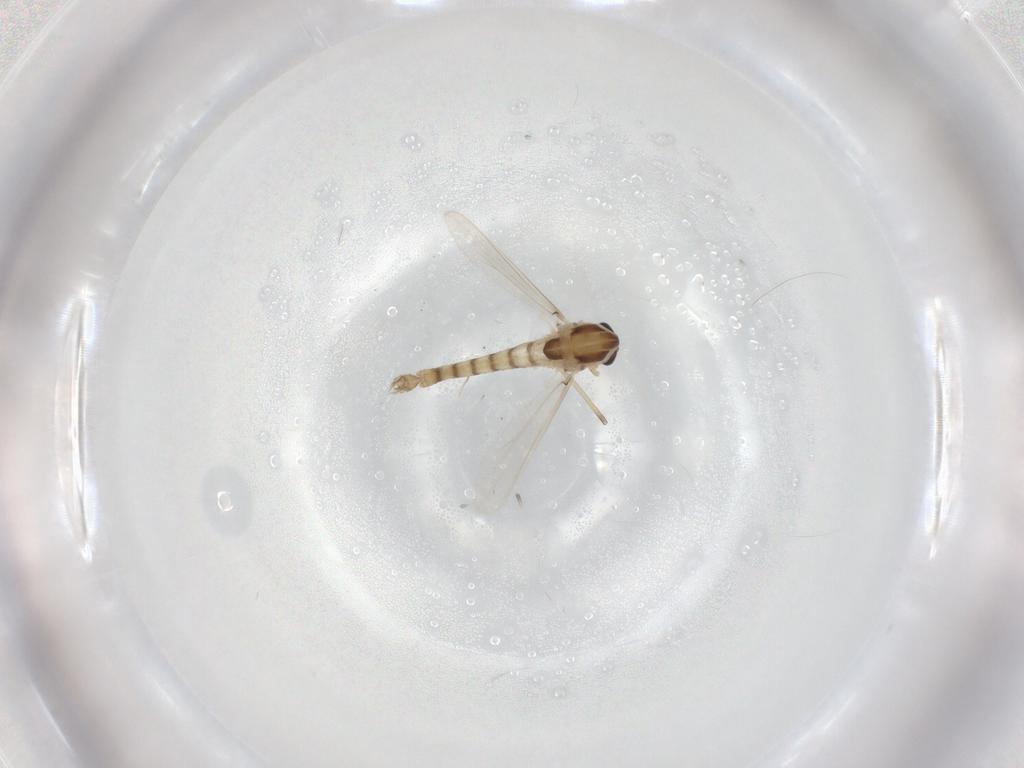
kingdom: Animalia
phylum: Arthropoda
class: Insecta
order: Diptera
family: Chironomidae
